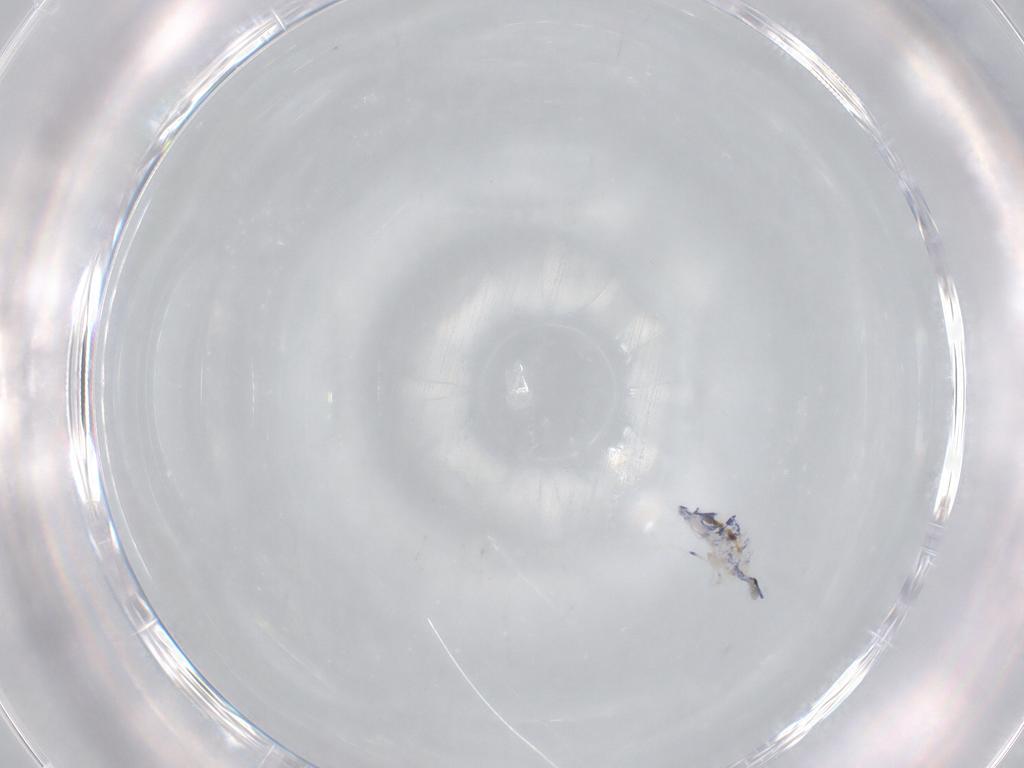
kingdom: Animalia
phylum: Arthropoda
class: Collembola
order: Entomobryomorpha
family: Entomobryidae
